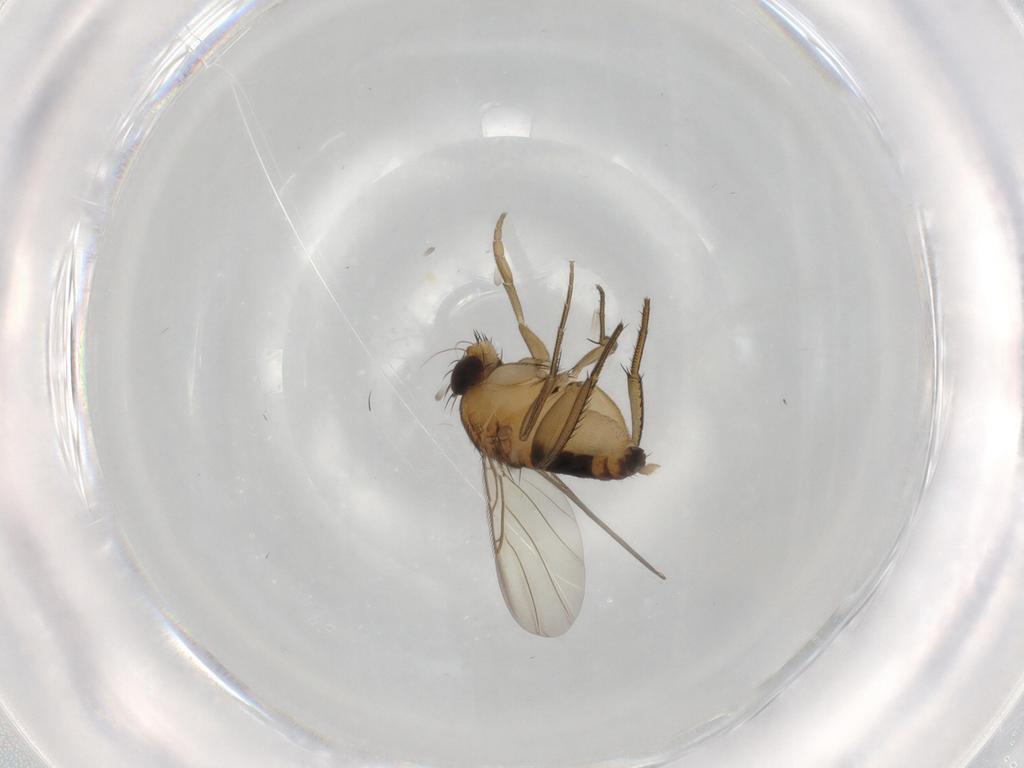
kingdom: Animalia
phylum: Arthropoda
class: Insecta
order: Diptera
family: Phoridae
